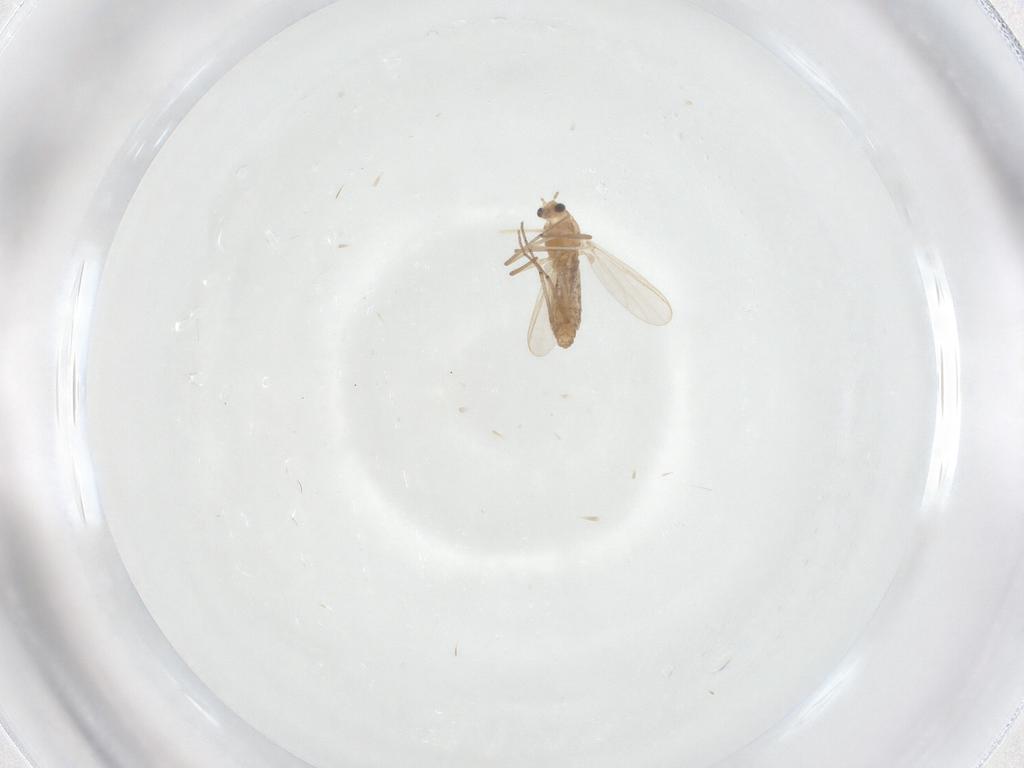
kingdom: Animalia
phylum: Arthropoda
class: Insecta
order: Diptera
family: Chironomidae
